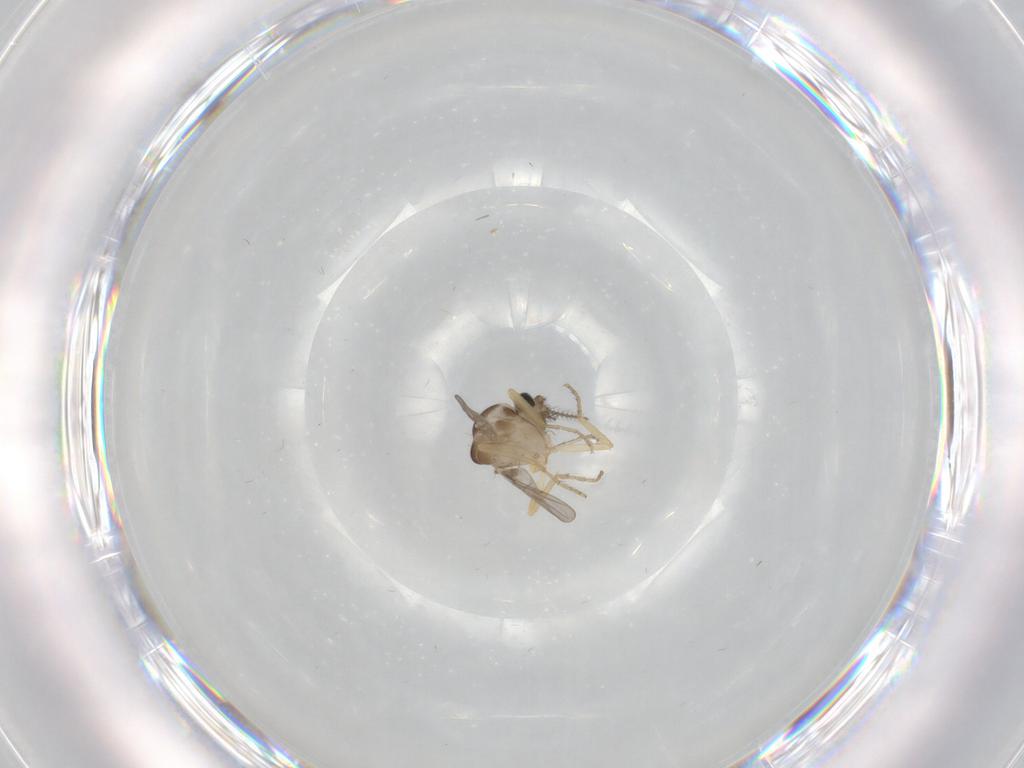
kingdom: Animalia
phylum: Arthropoda
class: Insecta
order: Diptera
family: Ceratopogonidae
